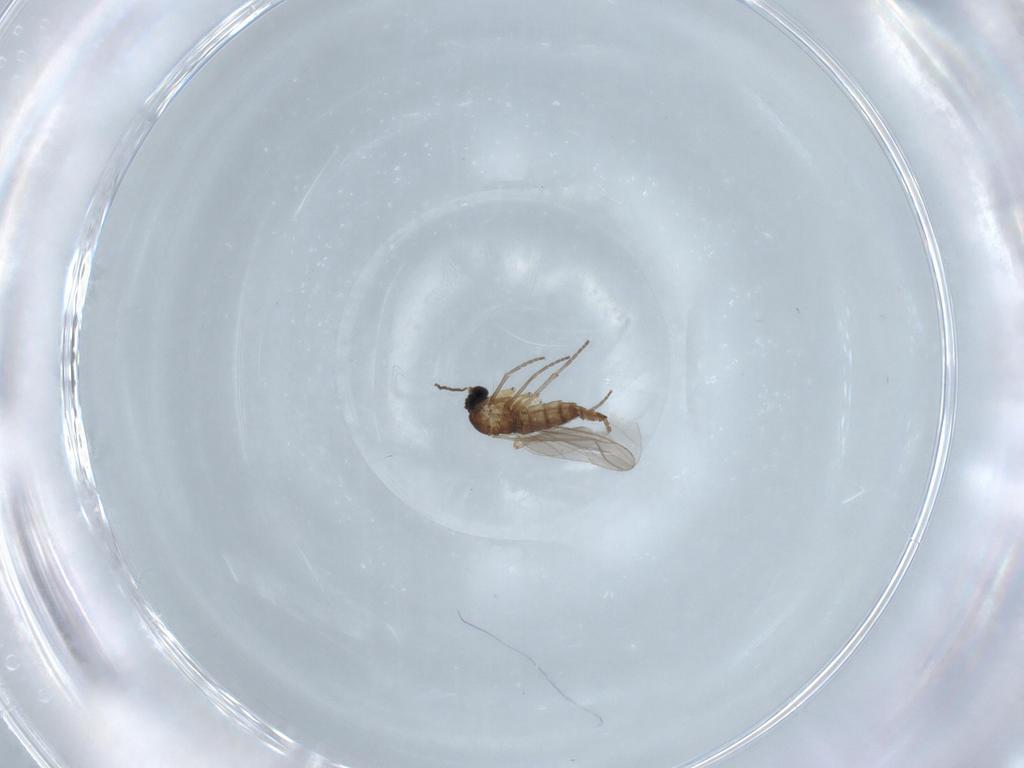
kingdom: Animalia
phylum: Arthropoda
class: Insecta
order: Diptera
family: Sciaridae
